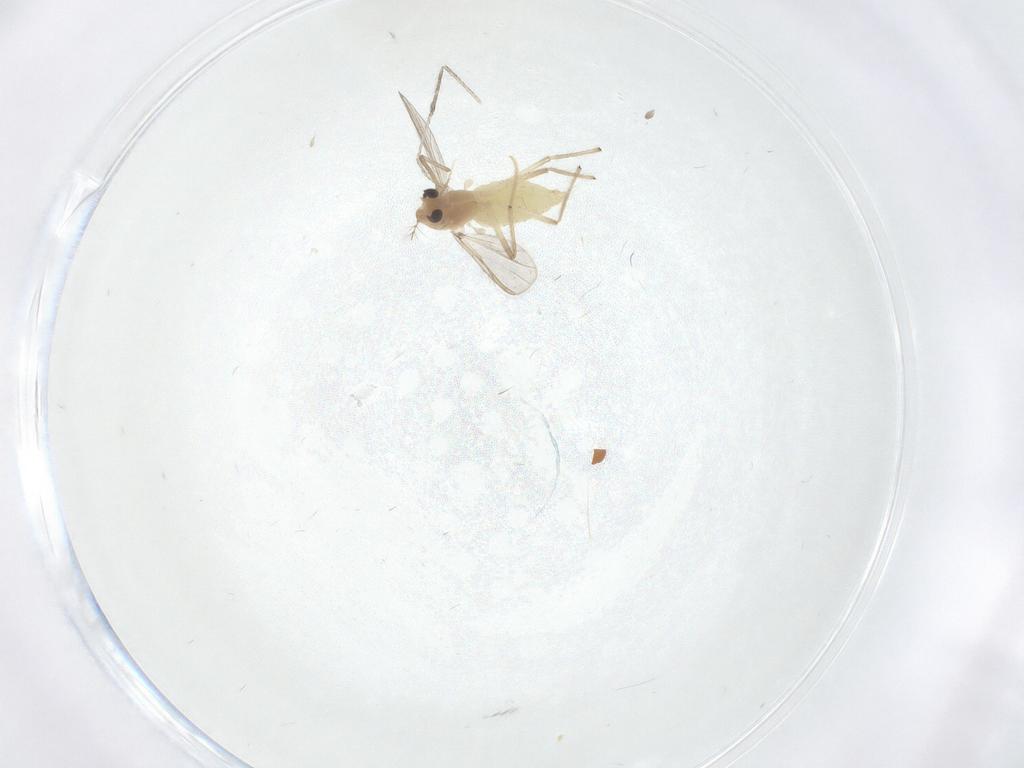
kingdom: Animalia
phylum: Arthropoda
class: Insecta
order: Diptera
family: Chironomidae
